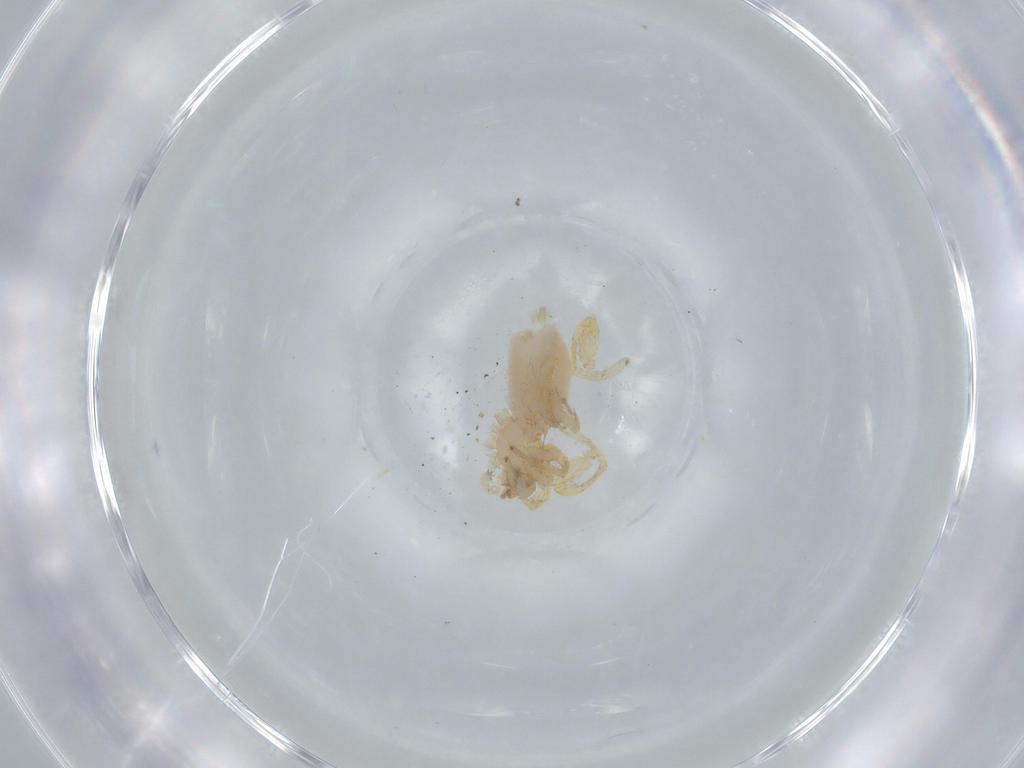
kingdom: Animalia
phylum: Arthropoda
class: Arachnida
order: Araneae
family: Oonopidae
